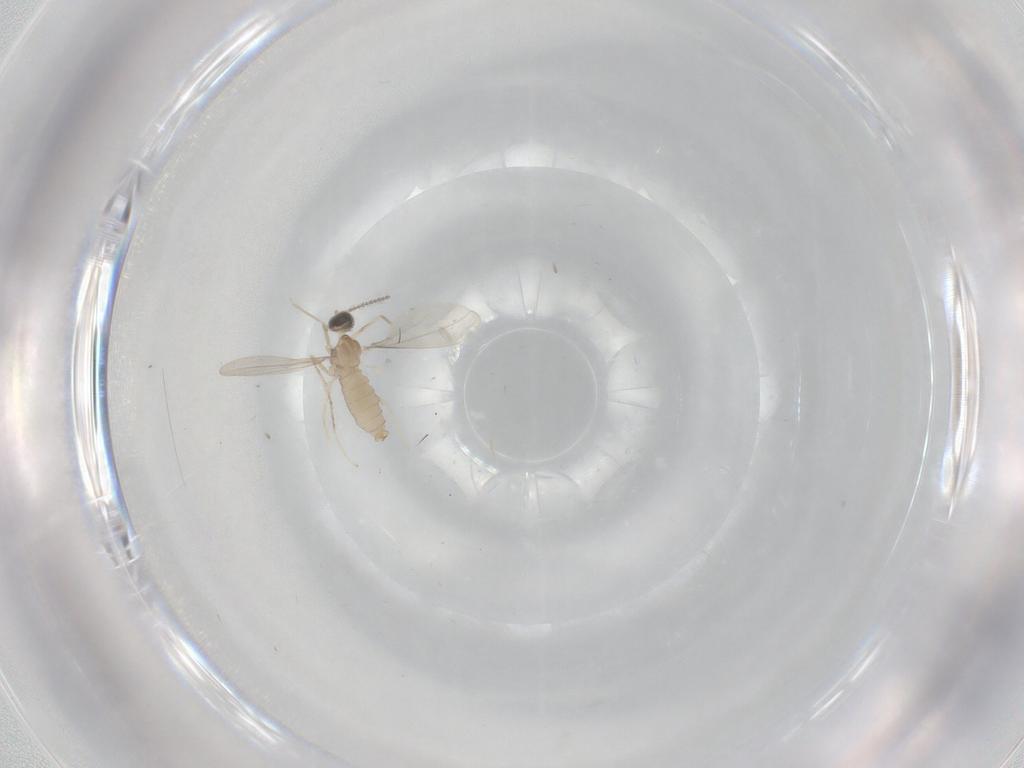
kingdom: Animalia
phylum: Arthropoda
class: Insecta
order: Diptera
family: Cecidomyiidae
